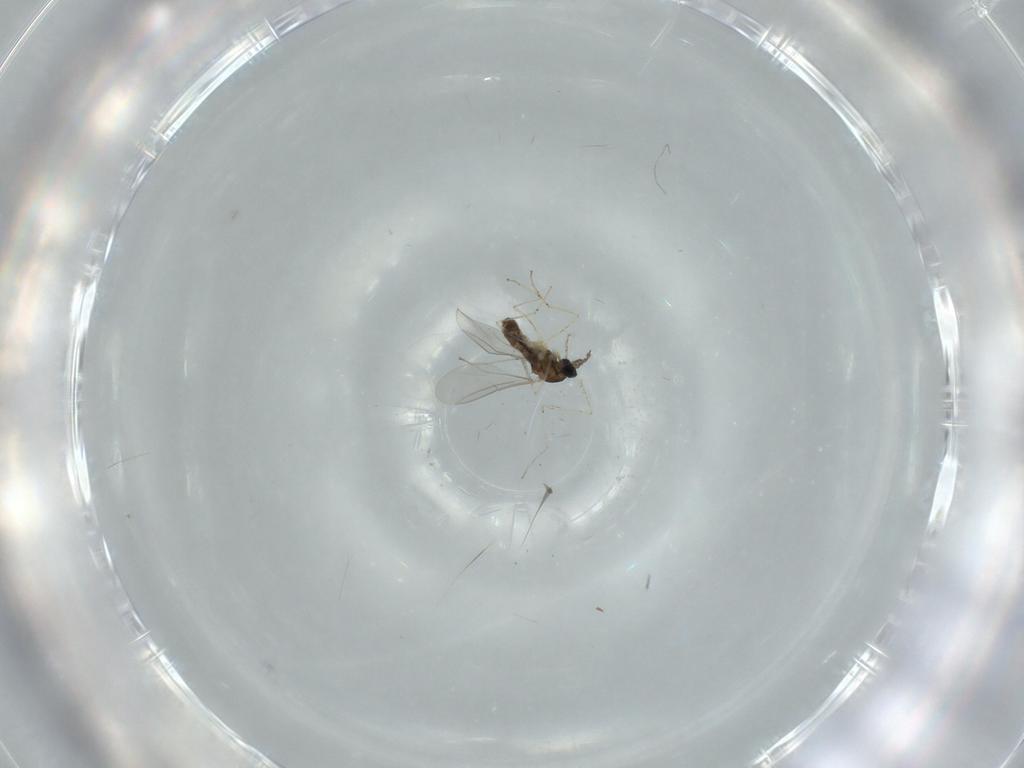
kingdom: Animalia
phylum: Arthropoda
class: Insecta
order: Diptera
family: Cecidomyiidae
